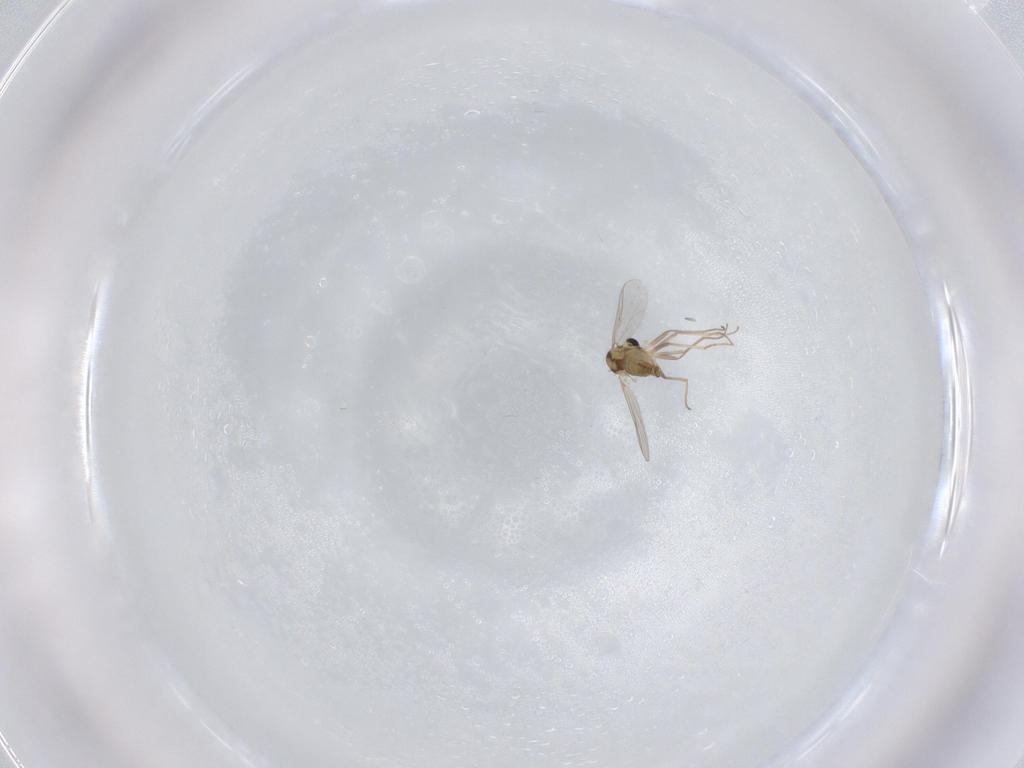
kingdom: Animalia
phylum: Arthropoda
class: Insecta
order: Diptera
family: Chironomidae
